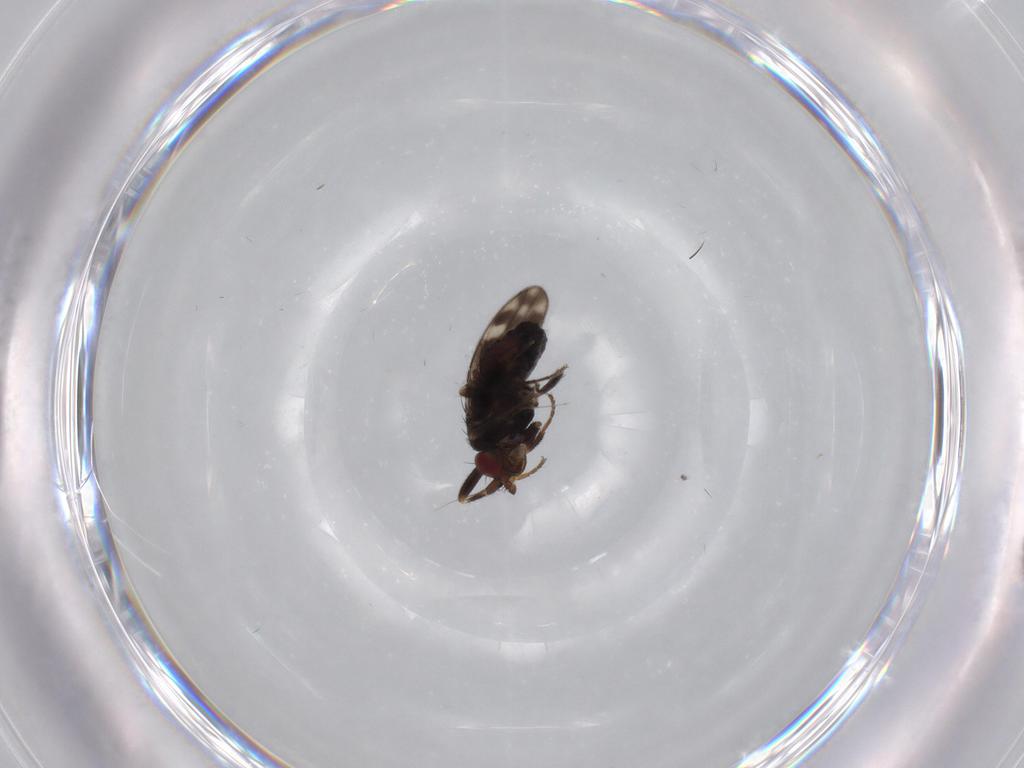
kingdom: Animalia
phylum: Arthropoda
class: Insecta
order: Diptera
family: Sphaeroceridae
